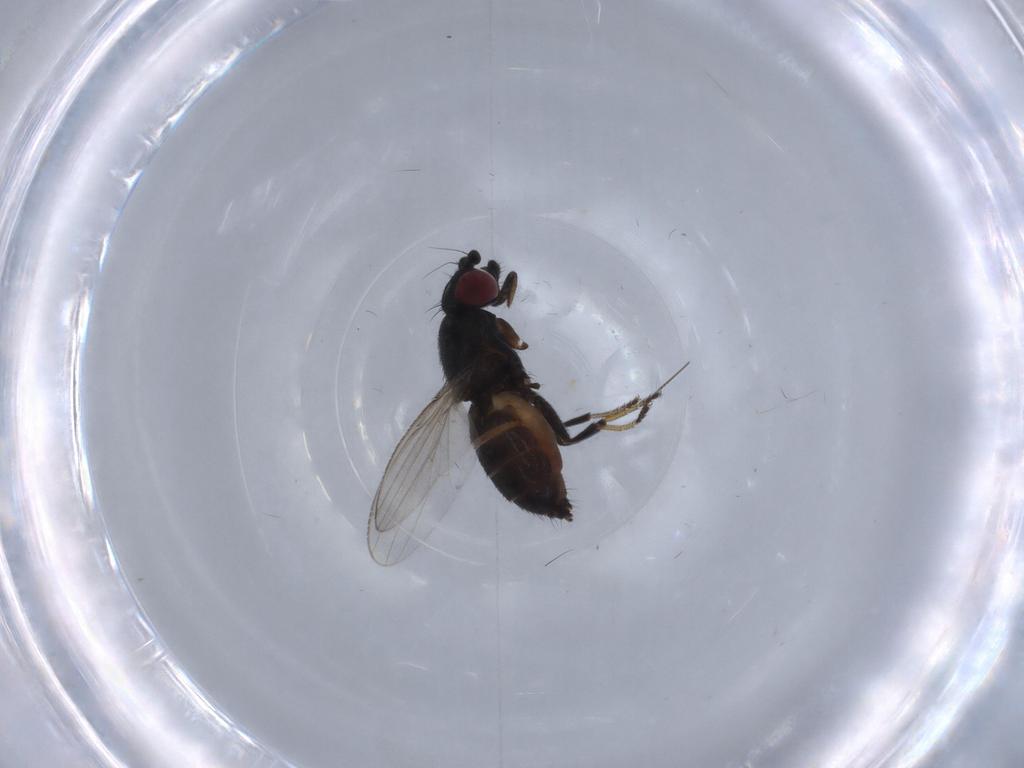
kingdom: Animalia
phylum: Arthropoda
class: Insecta
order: Diptera
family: Milichiidae
